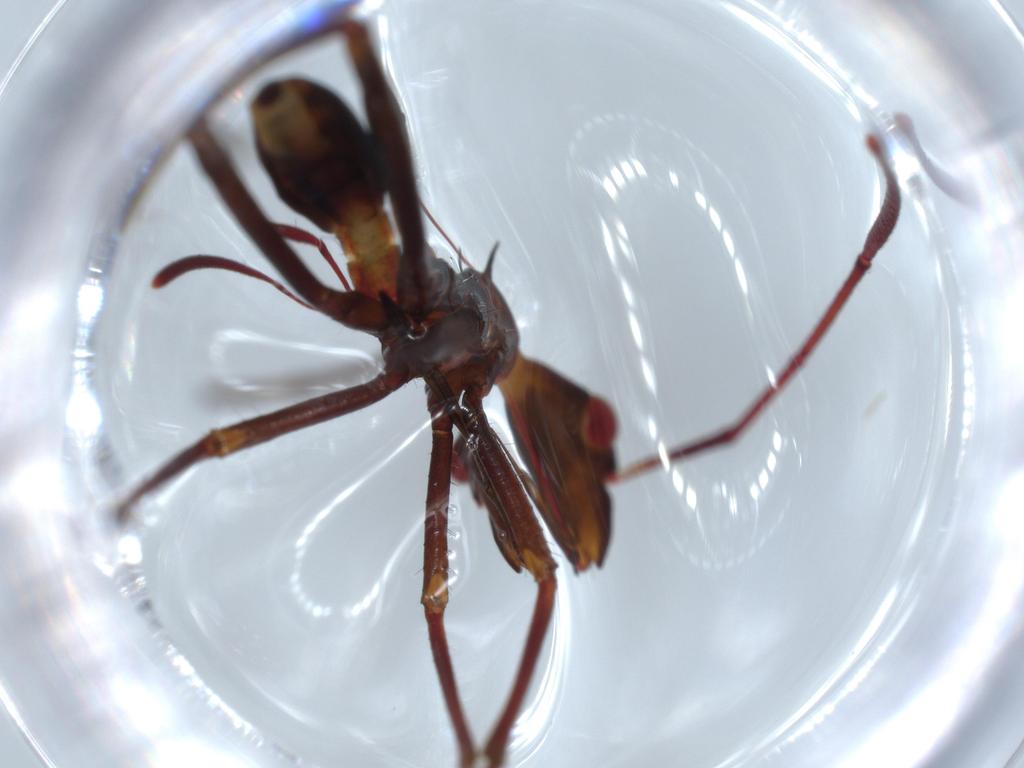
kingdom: Animalia
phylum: Arthropoda
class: Insecta
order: Hemiptera
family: Alydidae
